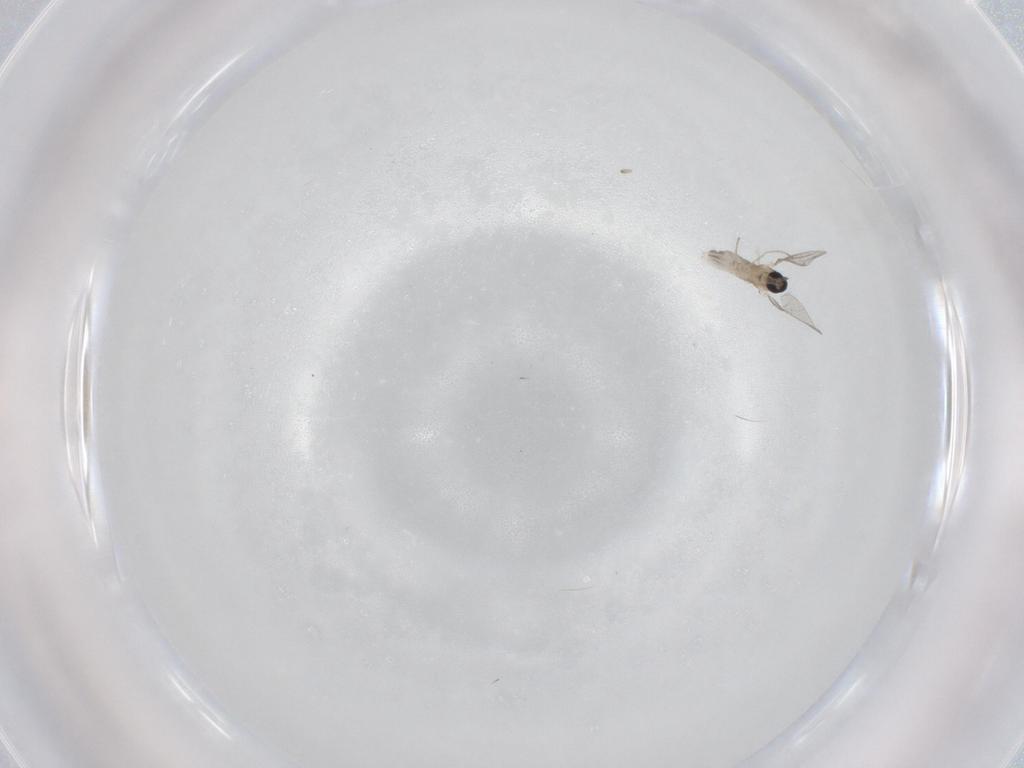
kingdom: Animalia
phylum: Arthropoda
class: Insecta
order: Diptera
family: Cecidomyiidae
